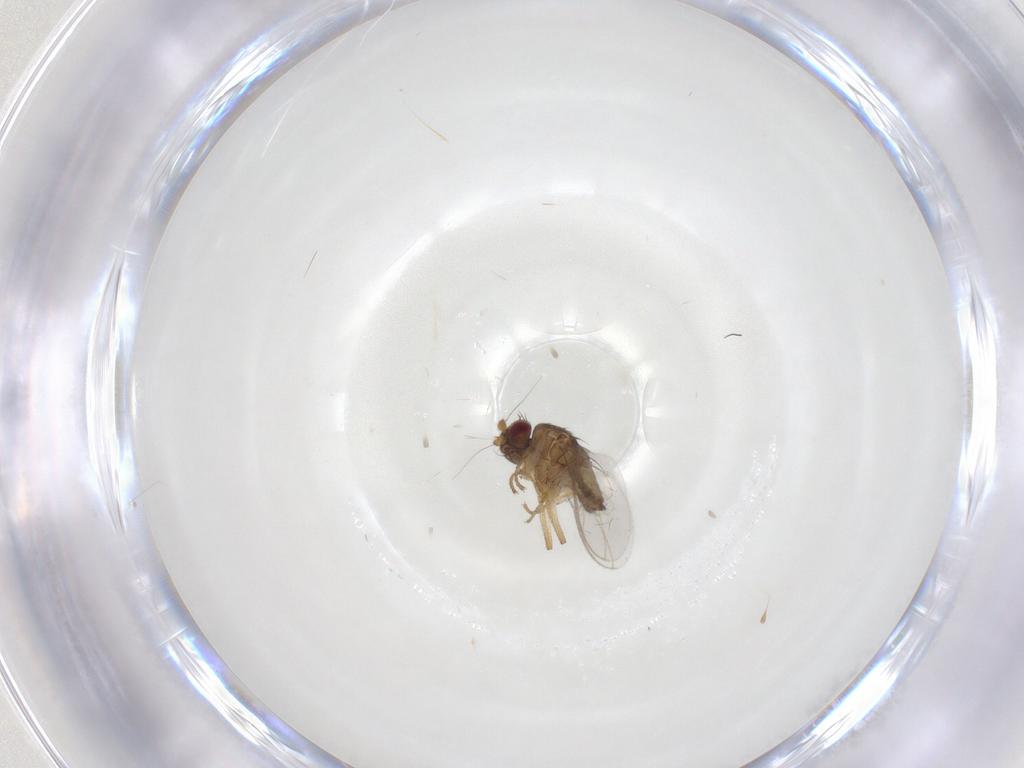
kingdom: Animalia
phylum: Arthropoda
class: Insecta
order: Diptera
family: Sphaeroceridae
